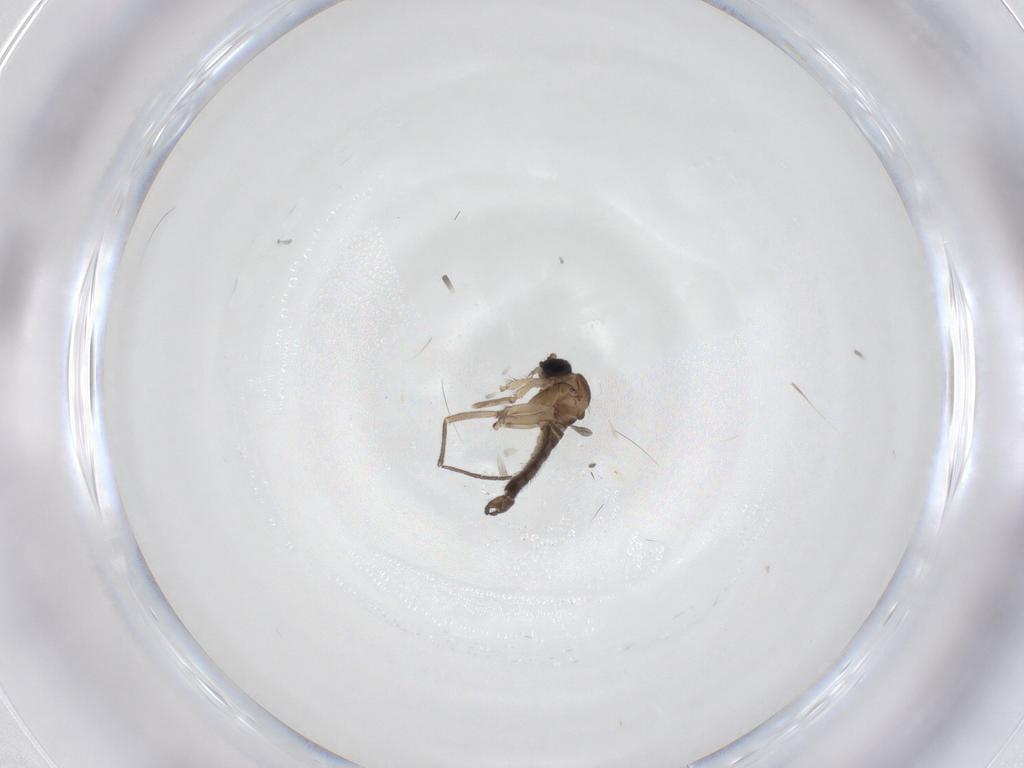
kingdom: Animalia
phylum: Arthropoda
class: Insecta
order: Diptera
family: Sciaridae
